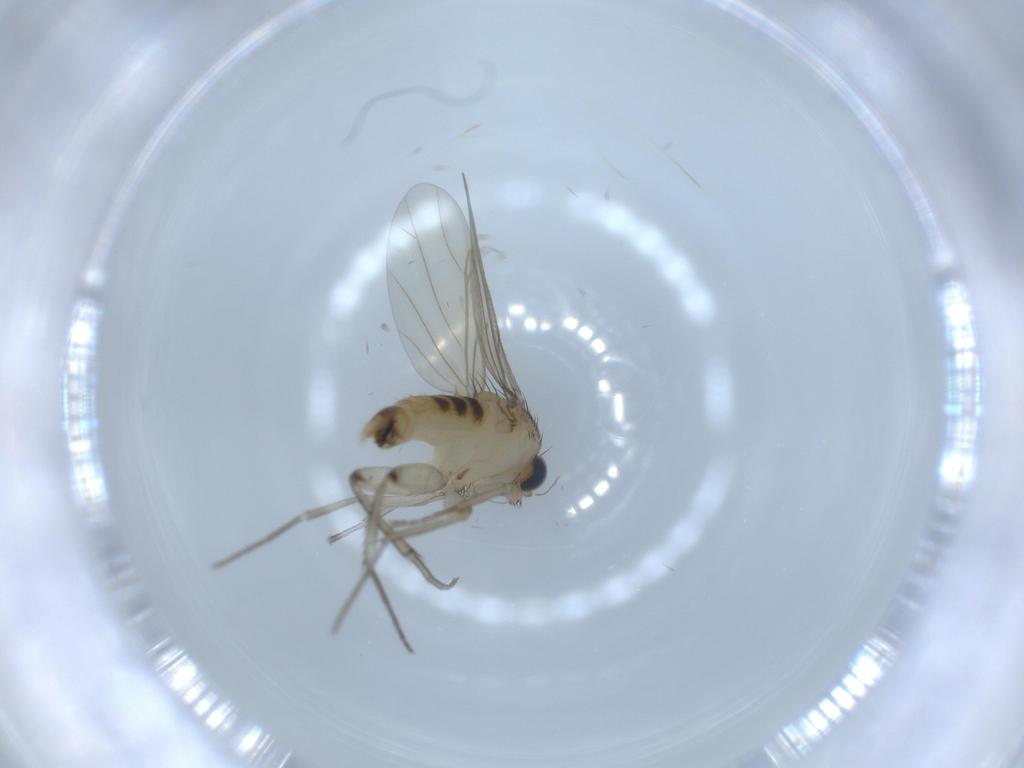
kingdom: Animalia
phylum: Arthropoda
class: Insecta
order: Diptera
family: Phoridae
